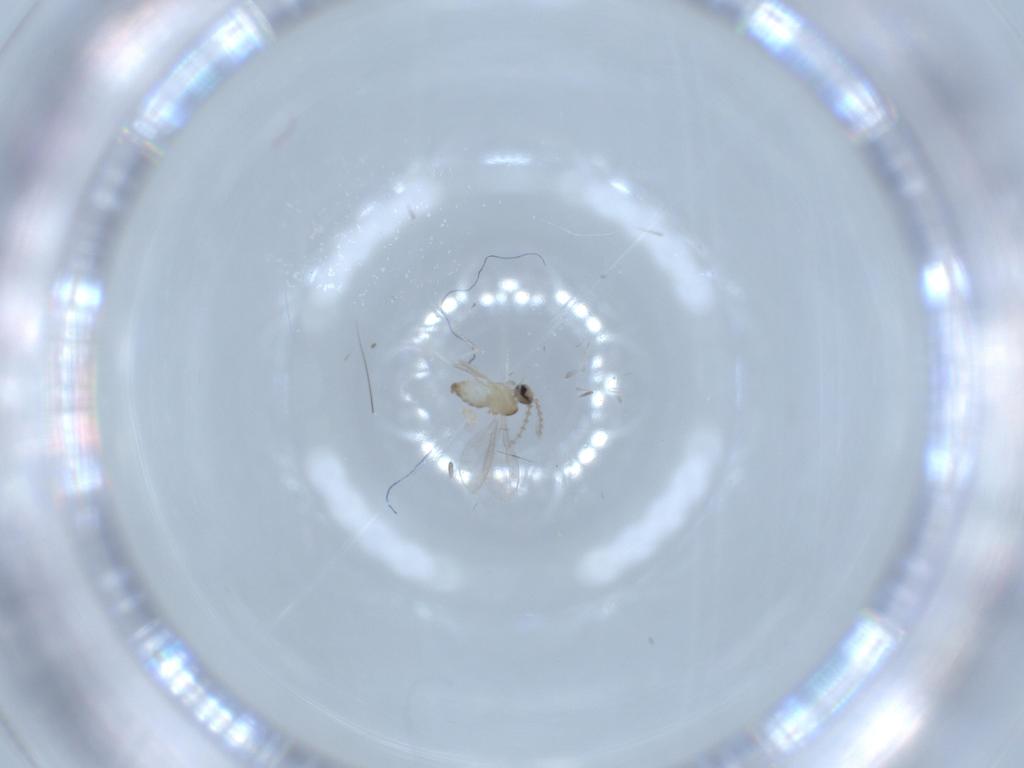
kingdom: Animalia
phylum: Arthropoda
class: Insecta
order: Diptera
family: Cecidomyiidae
